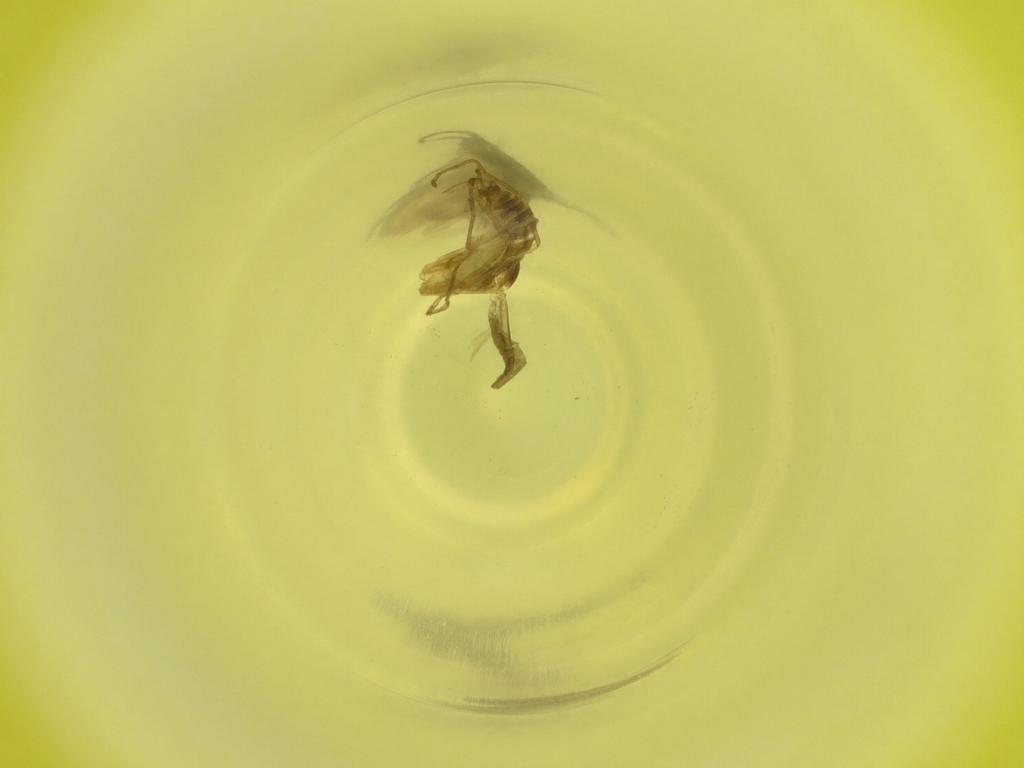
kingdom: Animalia
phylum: Arthropoda
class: Insecta
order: Diptera
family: Cecidomyiidae
